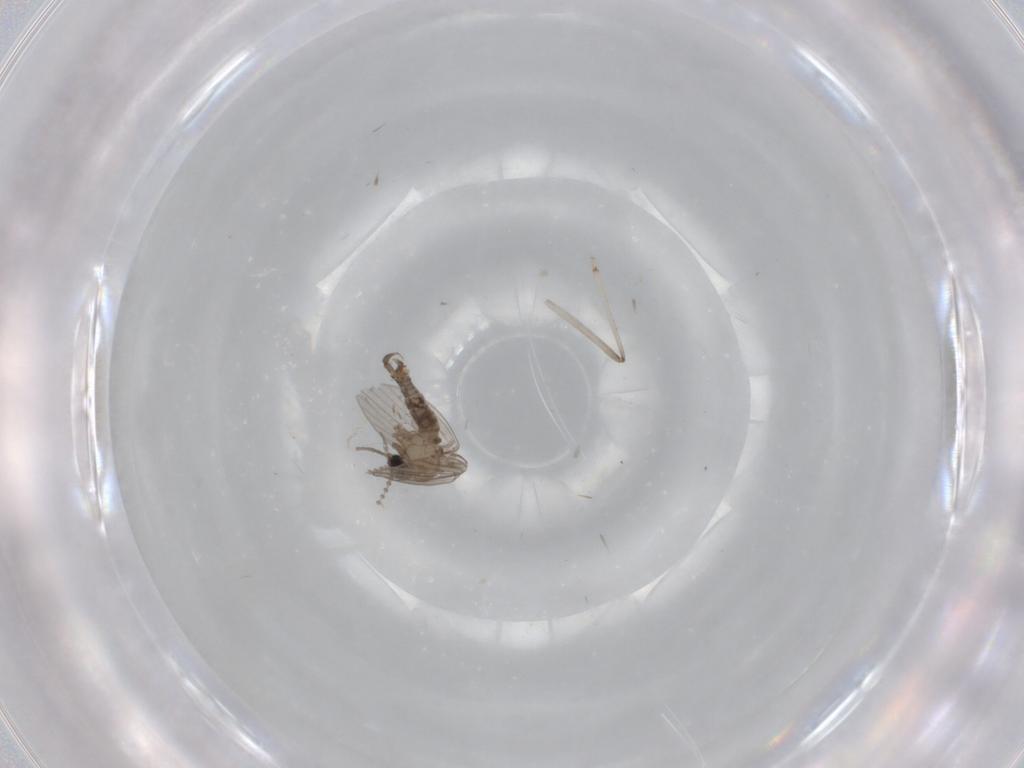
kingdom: Animalia
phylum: Arthropoda
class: Insecta
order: Diptera
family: Psychodidae
